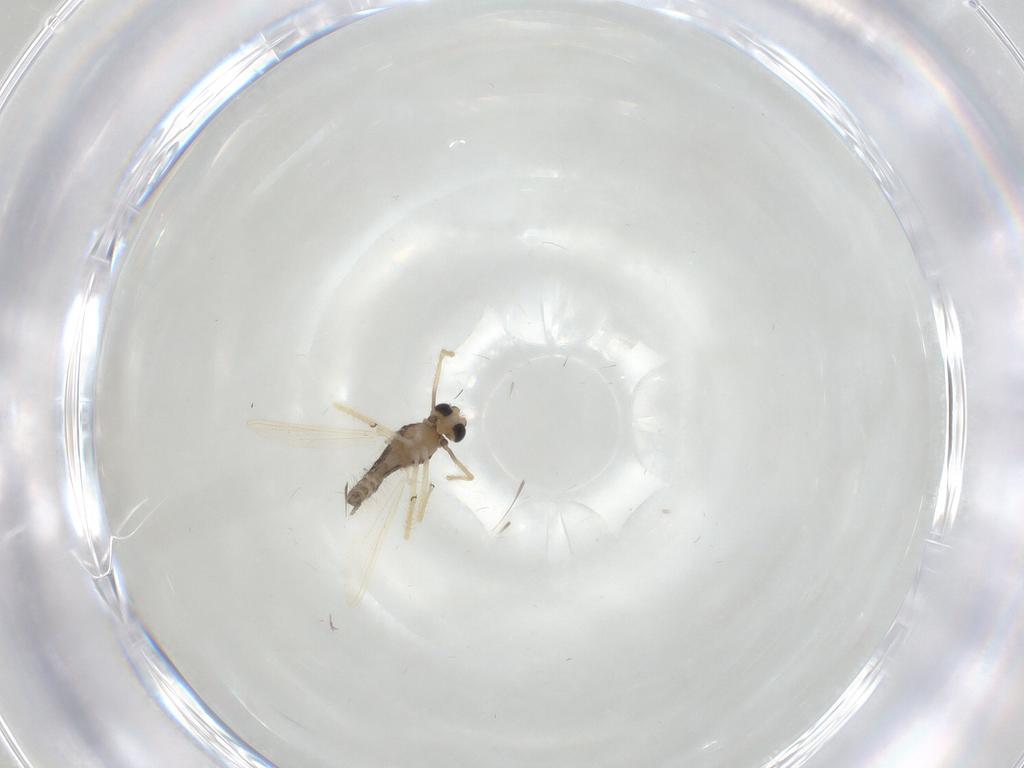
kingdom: Animalia
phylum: Arthropoda
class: Insecta
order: Diptera
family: Chironomidae
